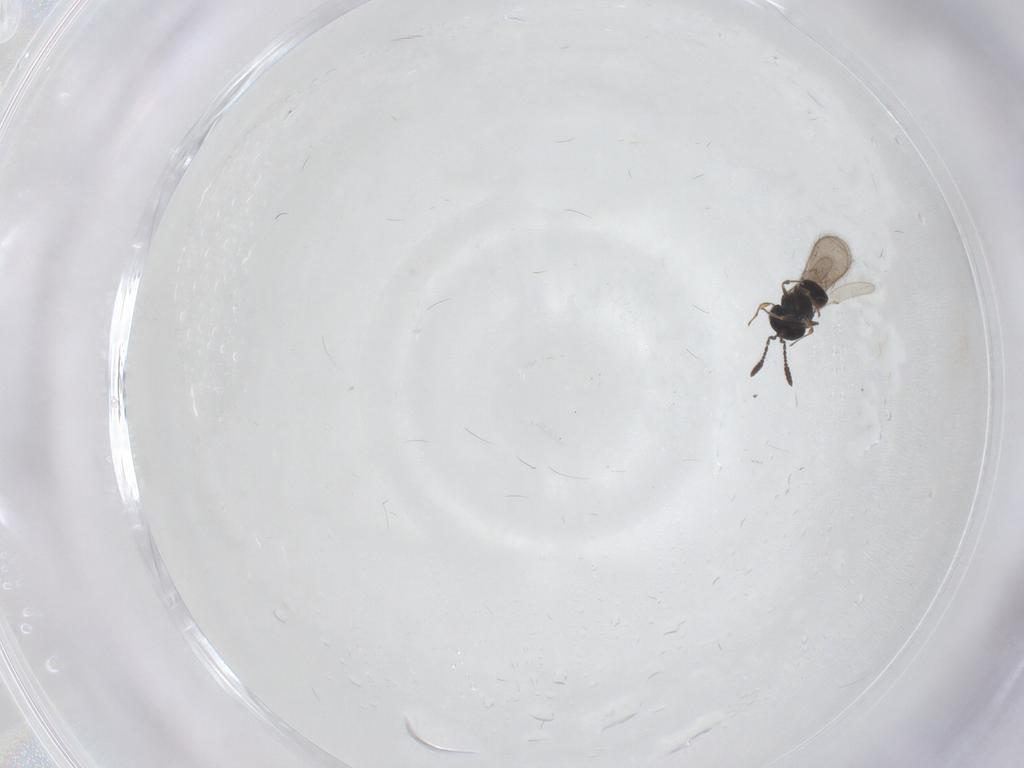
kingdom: Animalia
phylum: Arthropoda
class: Insecta
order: Hymenoptera
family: Scelionidae
